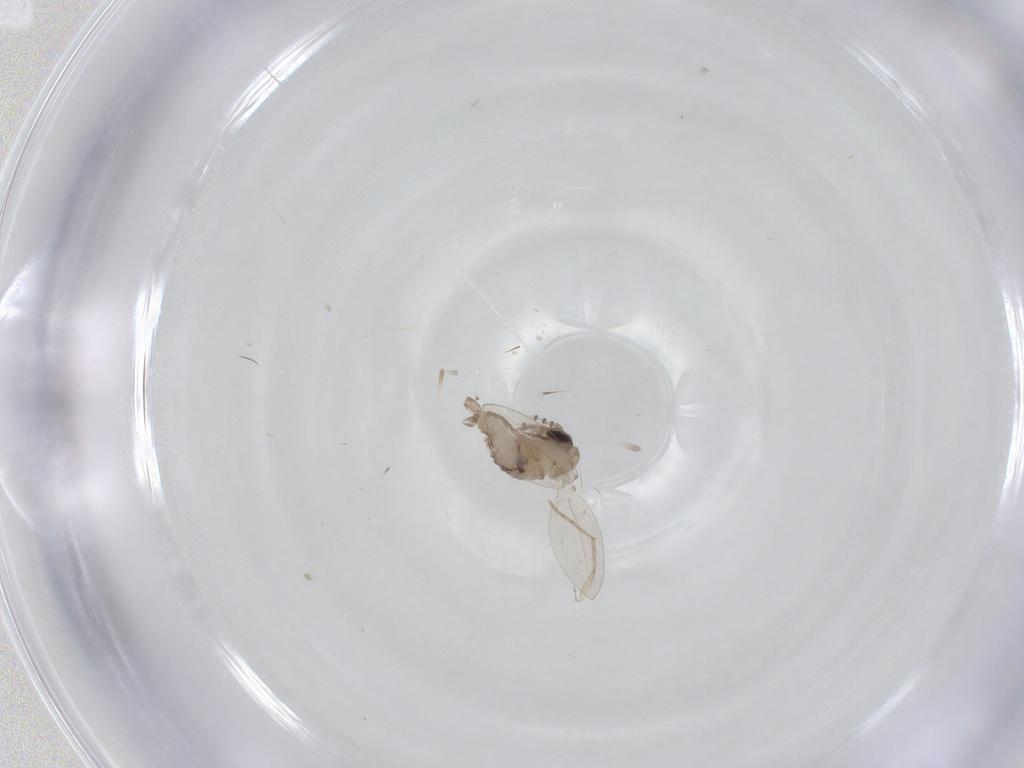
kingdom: Animalia
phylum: Arthropoda
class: Insecta
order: Diptera
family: Psychodidae
